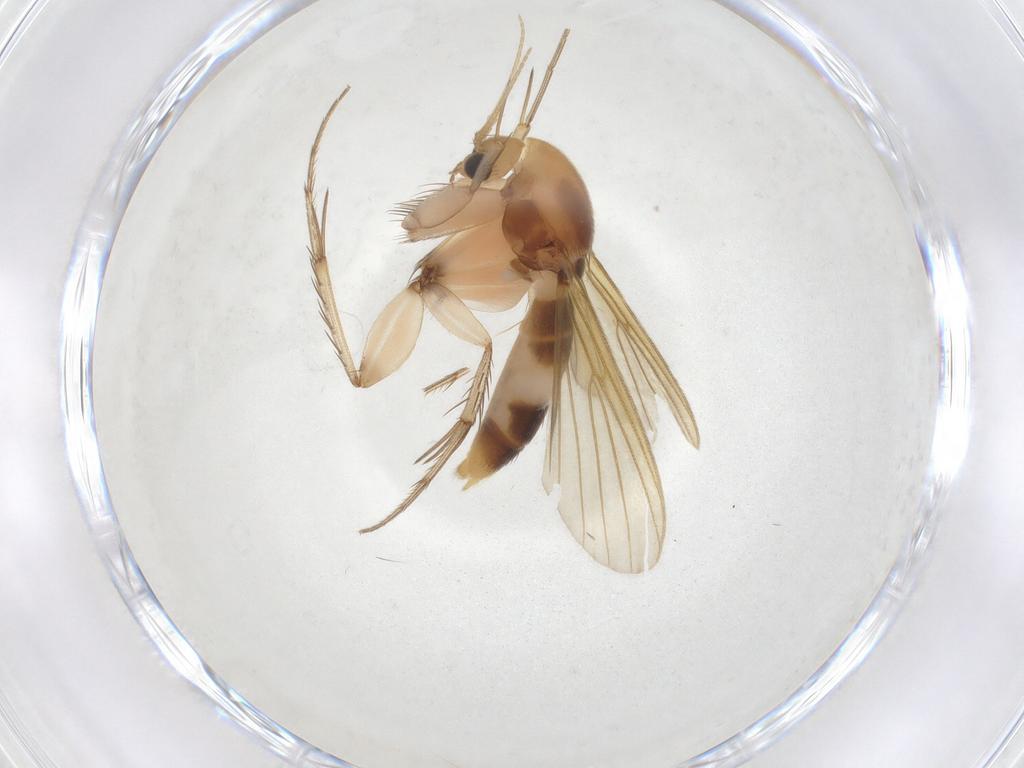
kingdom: Animalia
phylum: Arthropoda
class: Insecta
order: Diptera
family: Mycetophilidae
